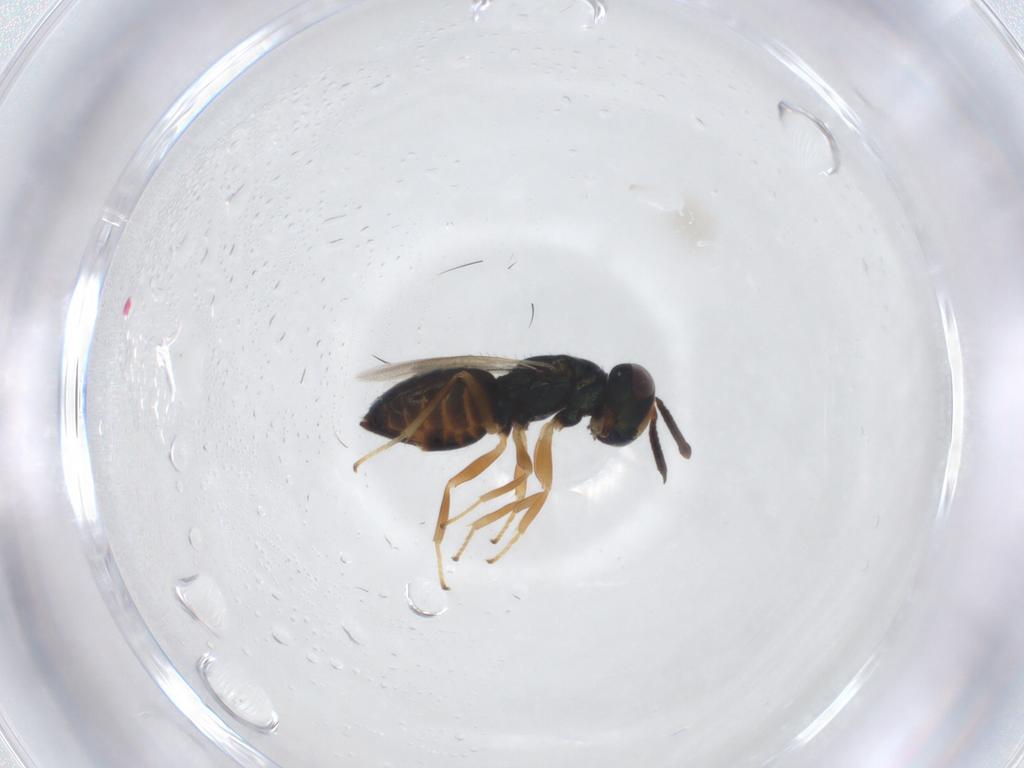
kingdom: Animalia
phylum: Arthropoda
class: Insecta
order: Hymenoptera
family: Pteromalidae
